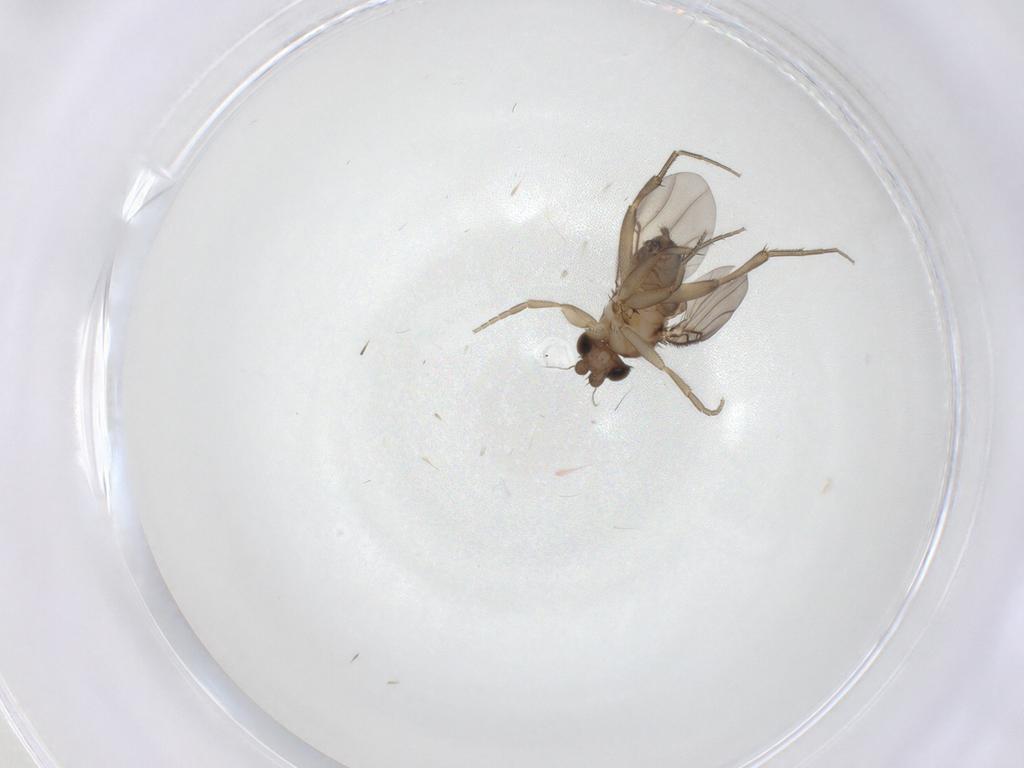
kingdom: Animalia
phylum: Arthropoda
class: Insecta
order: Diptera
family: Phoridae
